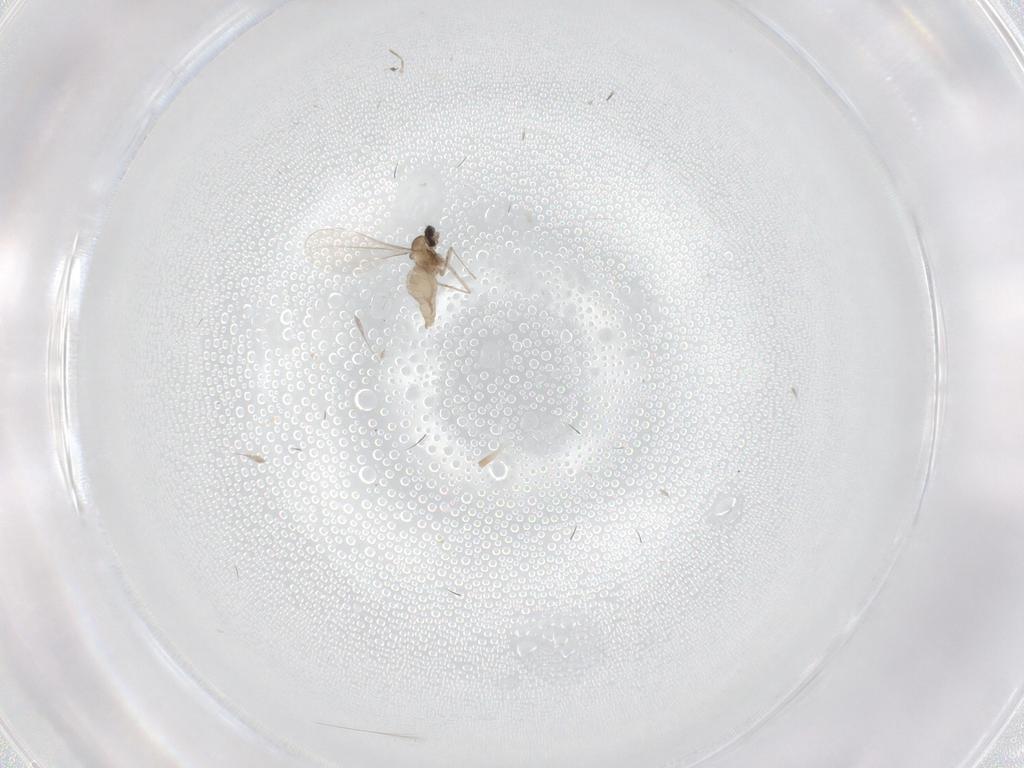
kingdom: Animalia
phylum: Arthropoda
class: Insecta
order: Diptera
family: Cecidomyiidae
